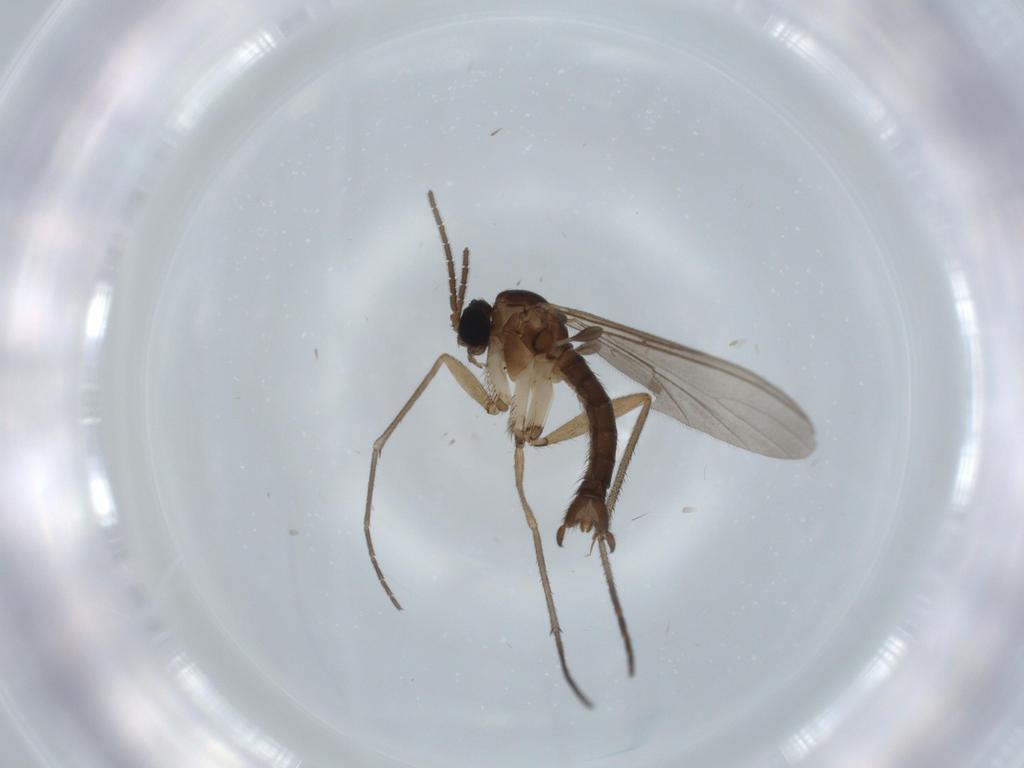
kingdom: Animalia
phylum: Arthropoda
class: Insecta
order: Diptera
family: Sciaridae
